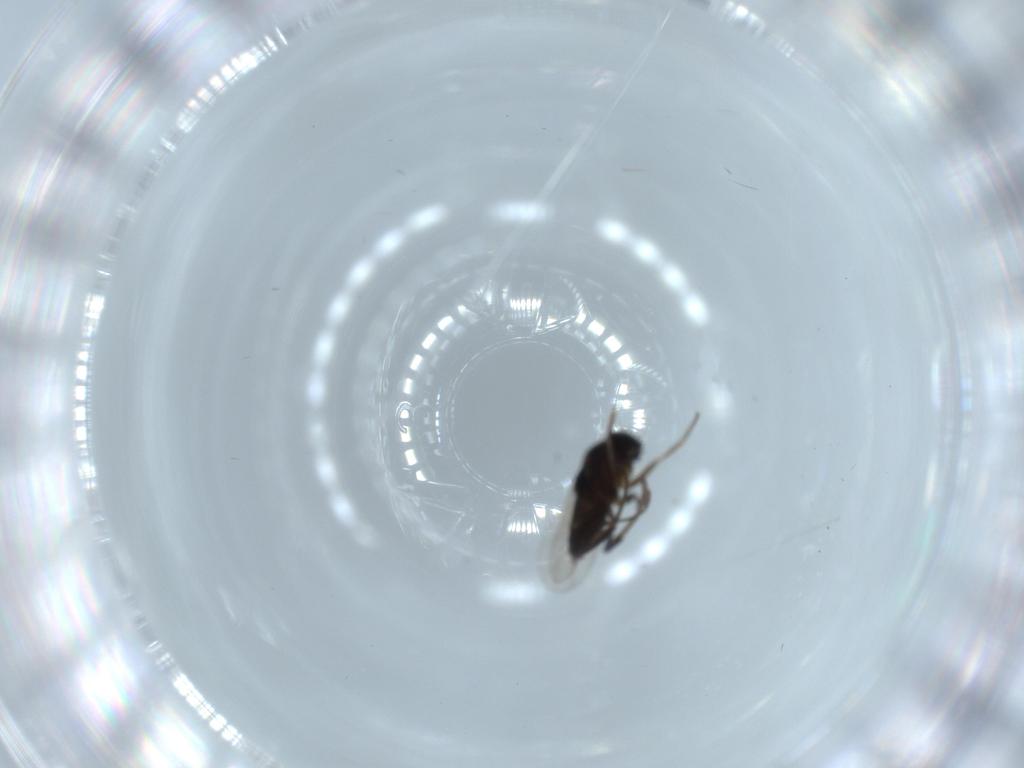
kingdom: Animalia
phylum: Arthropoda
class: Insecta
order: Diptera
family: Chironomidae
